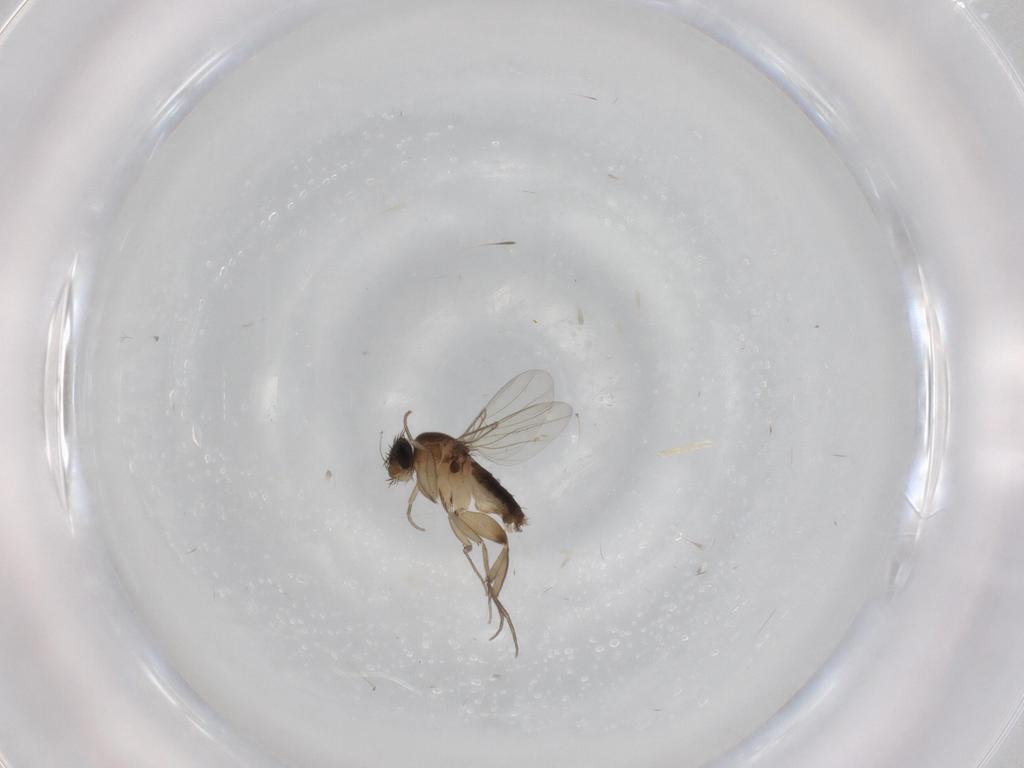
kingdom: Animalia
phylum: Arthropoda
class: Insecta
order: Diptera
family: Phoridae
